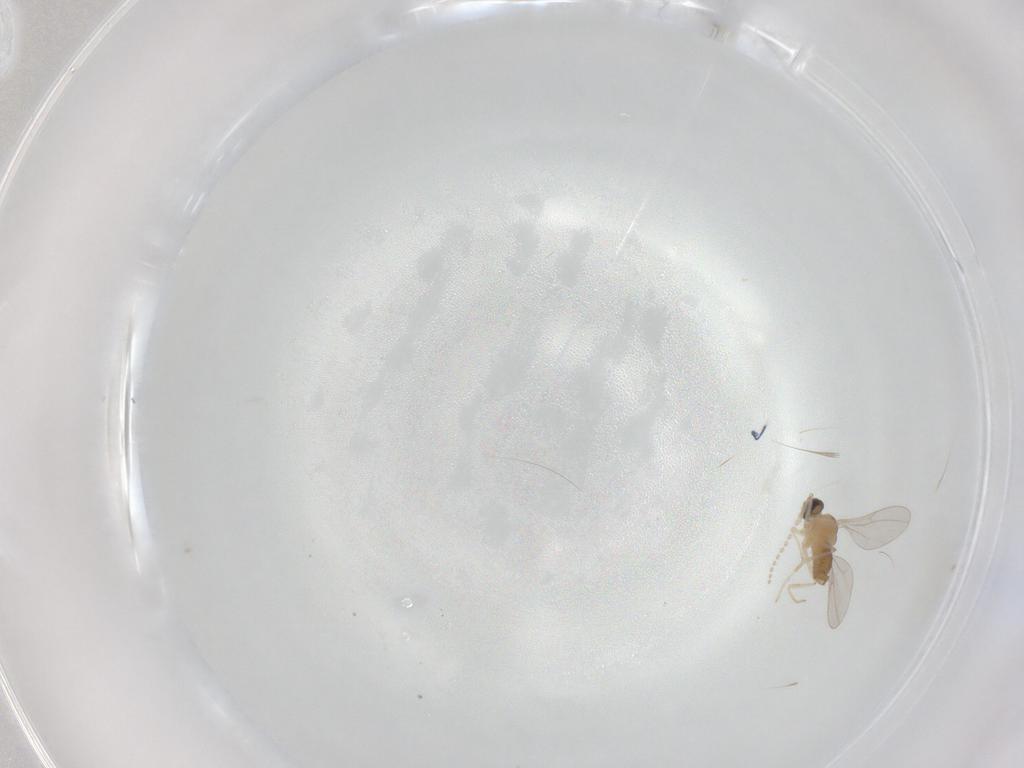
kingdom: Animalia
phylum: Arthropoda
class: Insecta
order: Diptera
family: Cecidomyiidae
